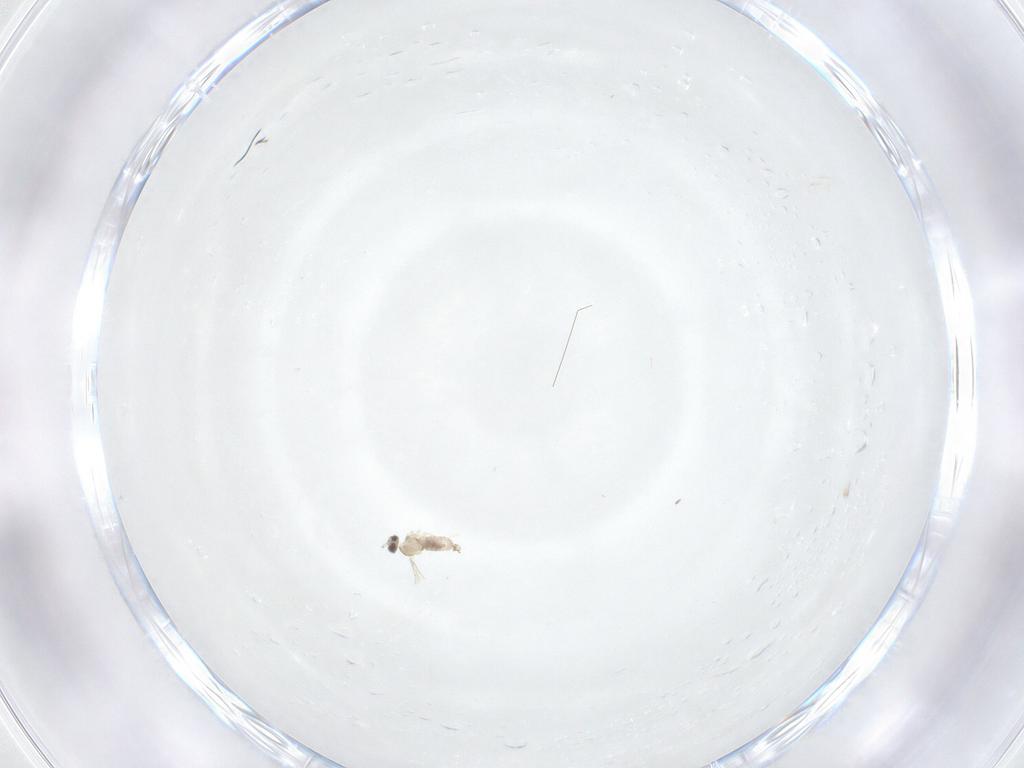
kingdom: Animalia
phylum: Arthropoda
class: Insecta
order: Diptera
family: Cecidomyiidae
